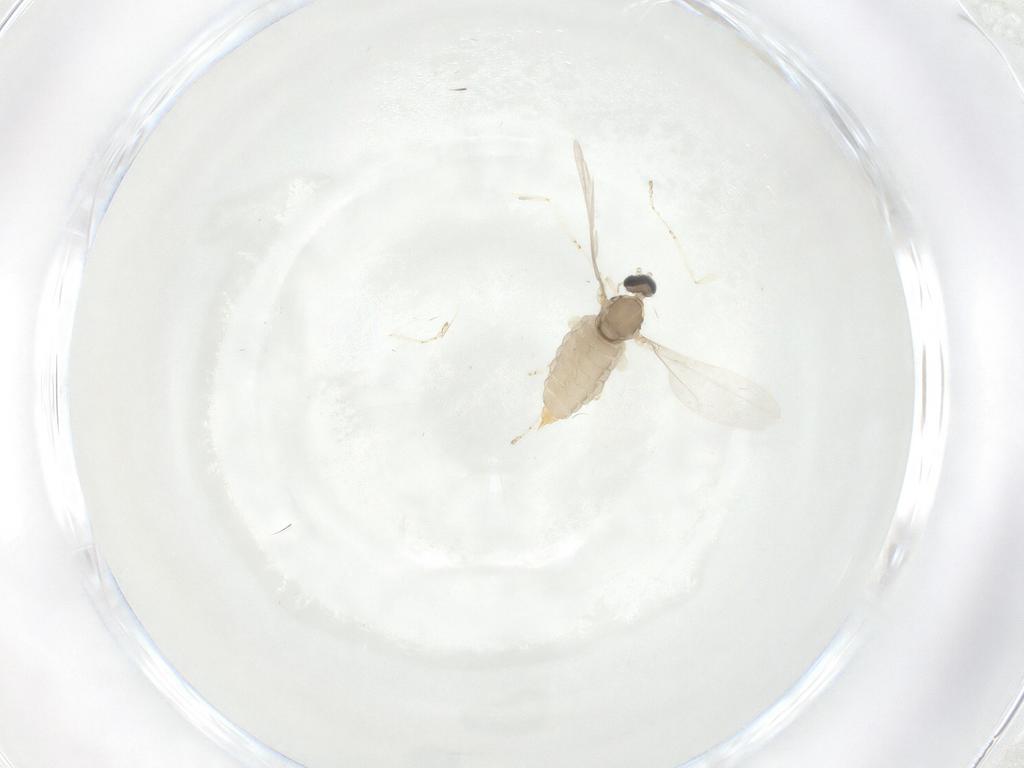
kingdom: Animalia
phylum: Arthropoda
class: Insecta
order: Diptera
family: Cecidomyiidae
